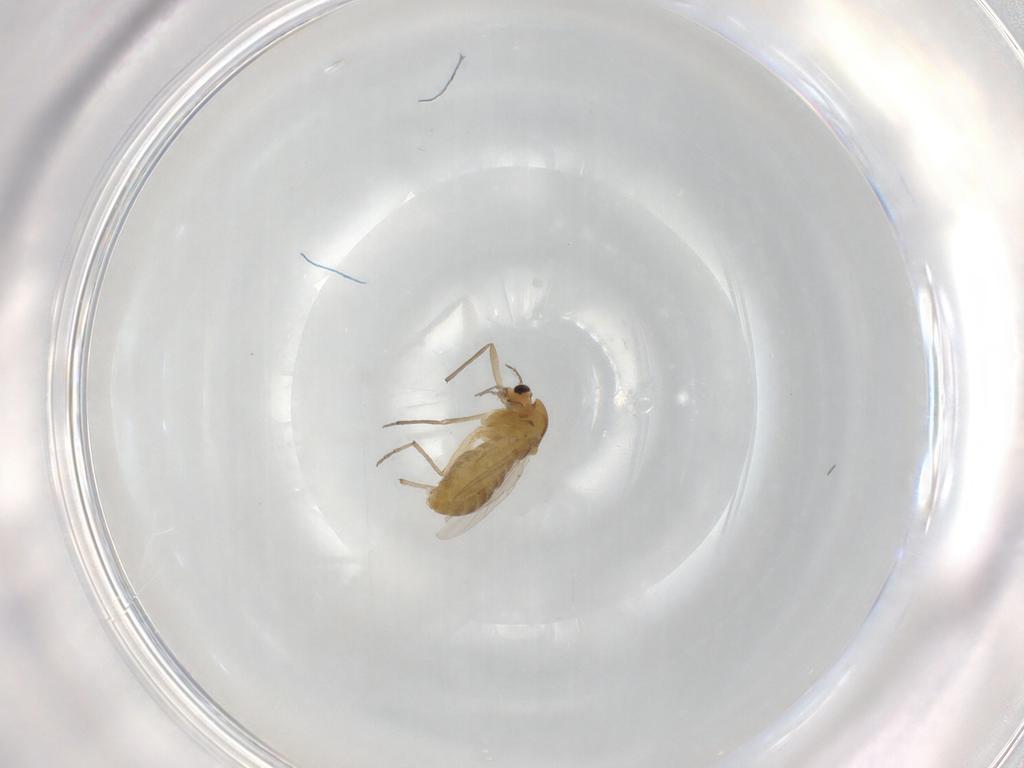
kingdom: Animalia
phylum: Arthropoda
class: Insecta
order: Diptera
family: Chironomidae
